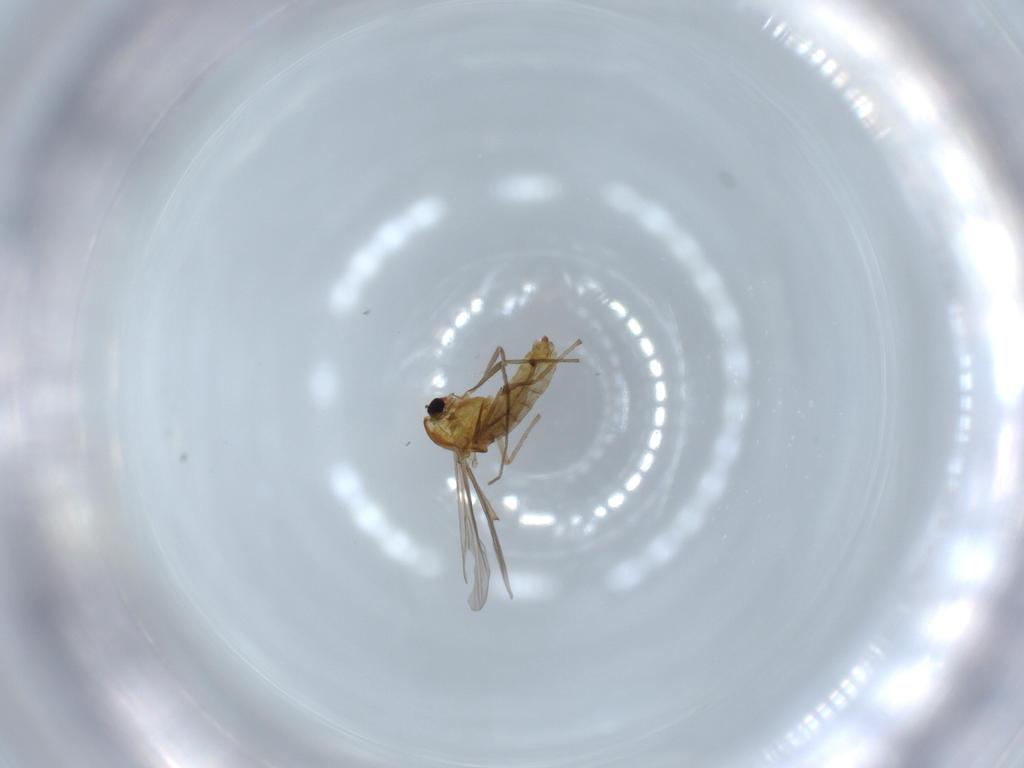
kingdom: Animalia
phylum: Arthropoda
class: Insecta
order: Diptera
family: Chironomidae
